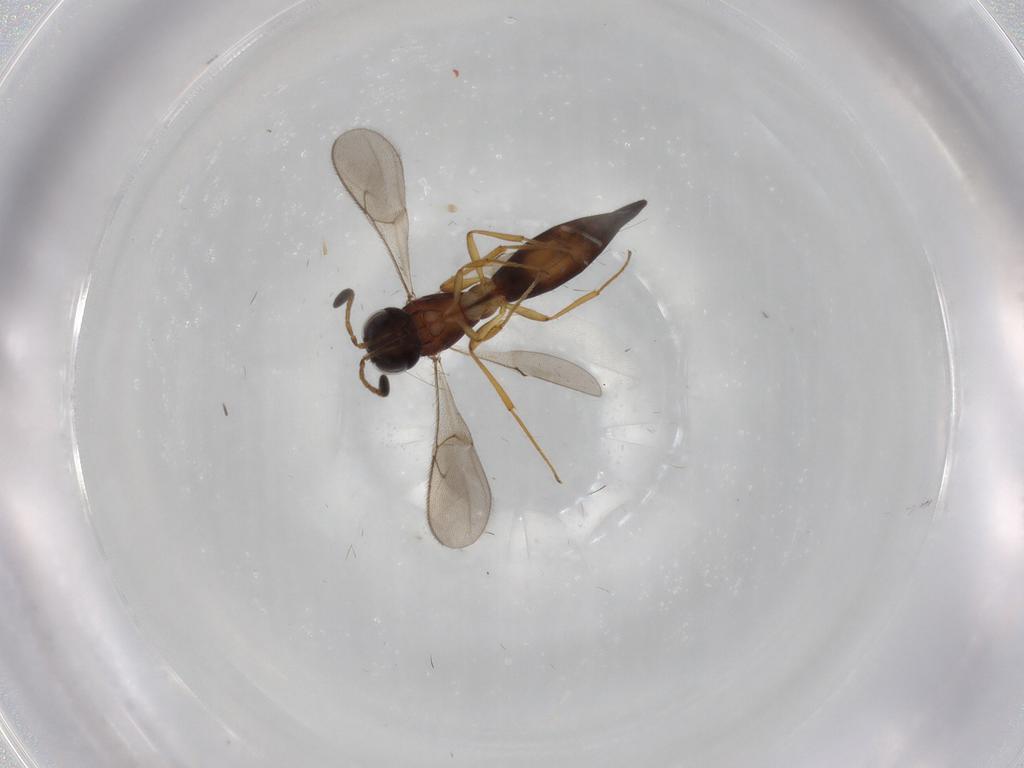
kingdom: Animalia
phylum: Arthropoda
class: Insecta
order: Hymenoptera
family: Scelionidae
